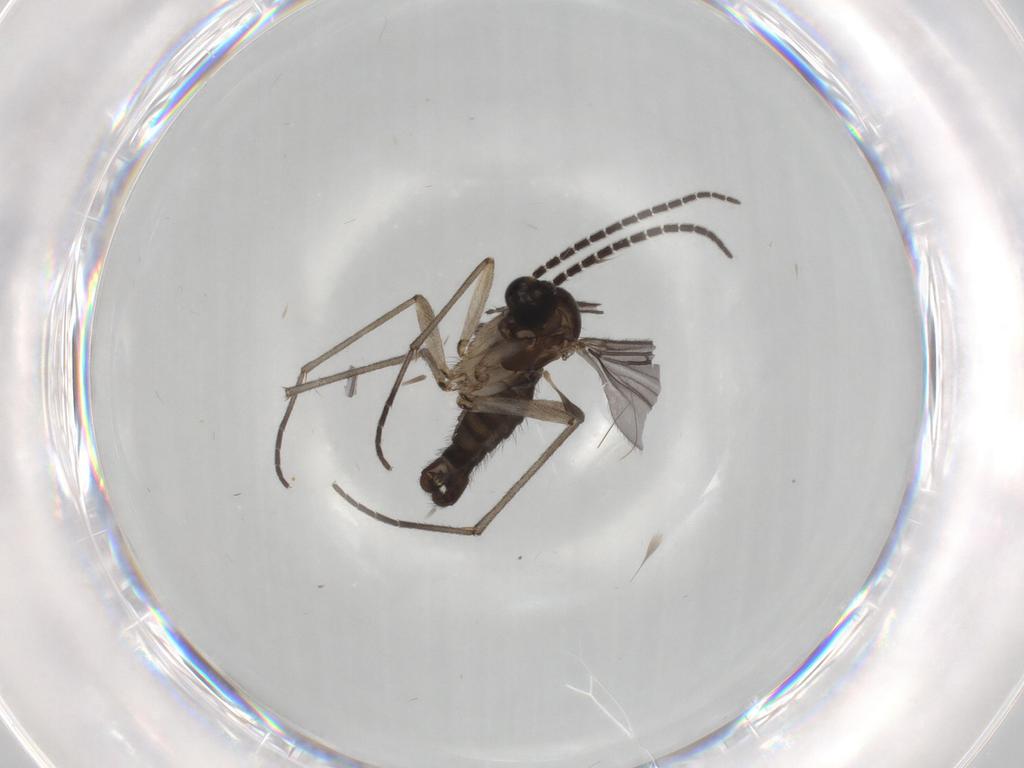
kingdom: Animalia
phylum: Arthropoda
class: Insecta
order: Diptera
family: Sciaridae
